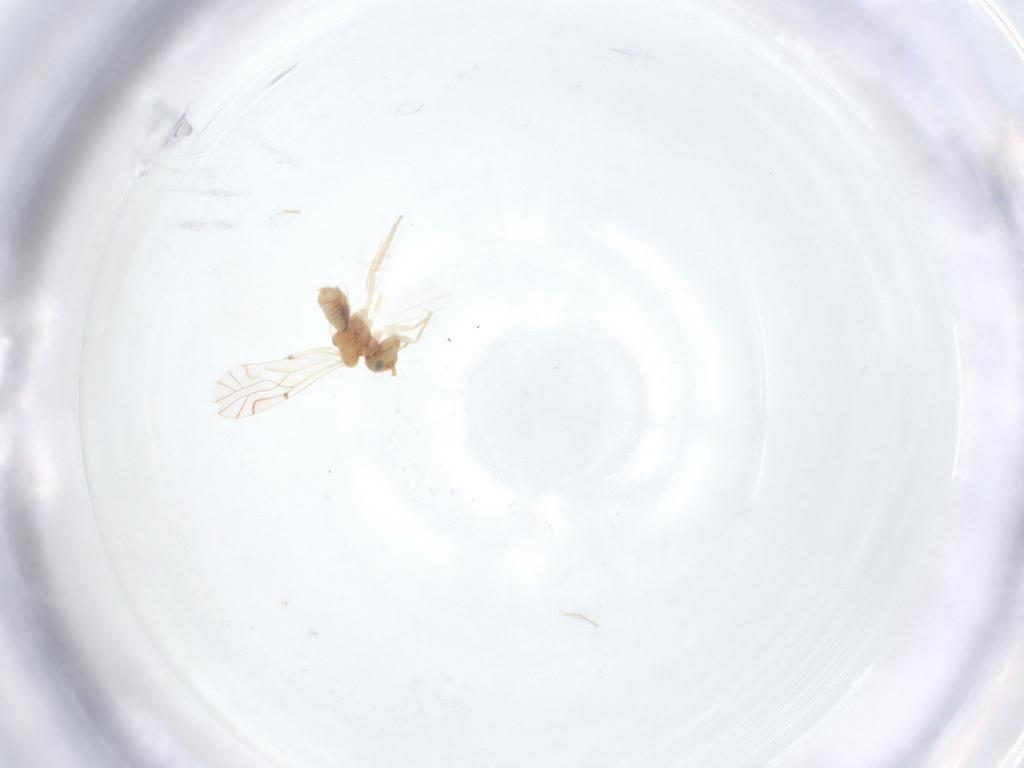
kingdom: Animalia
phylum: Arthropoda
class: Insecta
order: Psocodea
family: Lachesillidae
